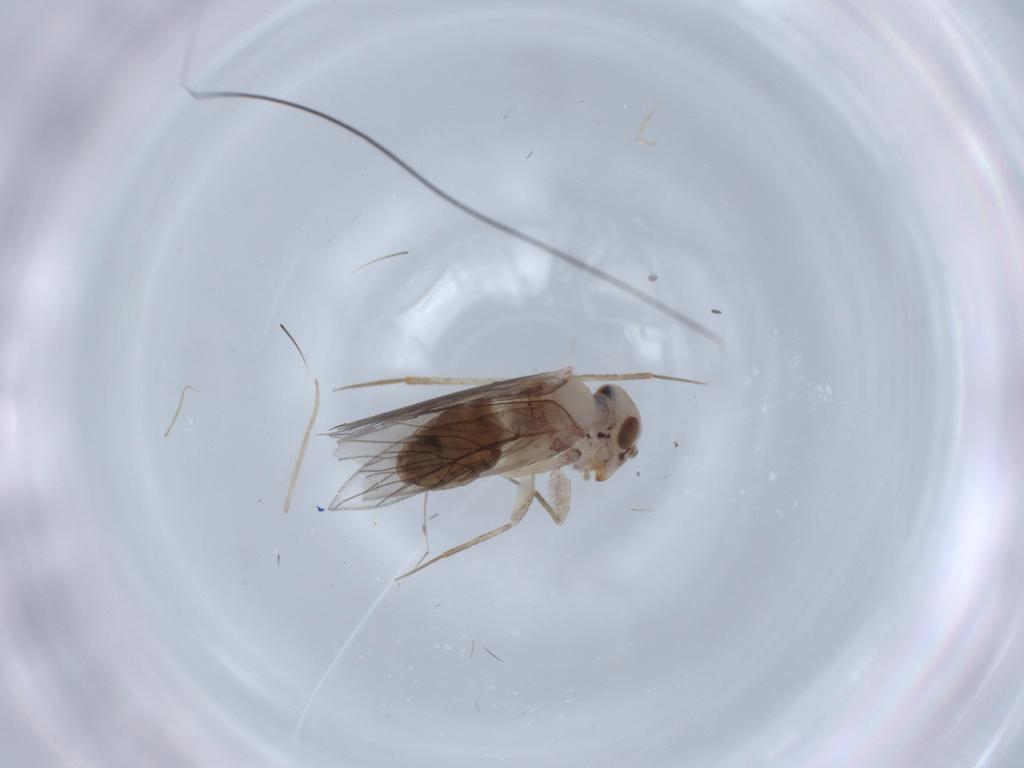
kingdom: Animalia
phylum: Arthropoda
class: Insecta
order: Psocodea
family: Lepidopsocidae
